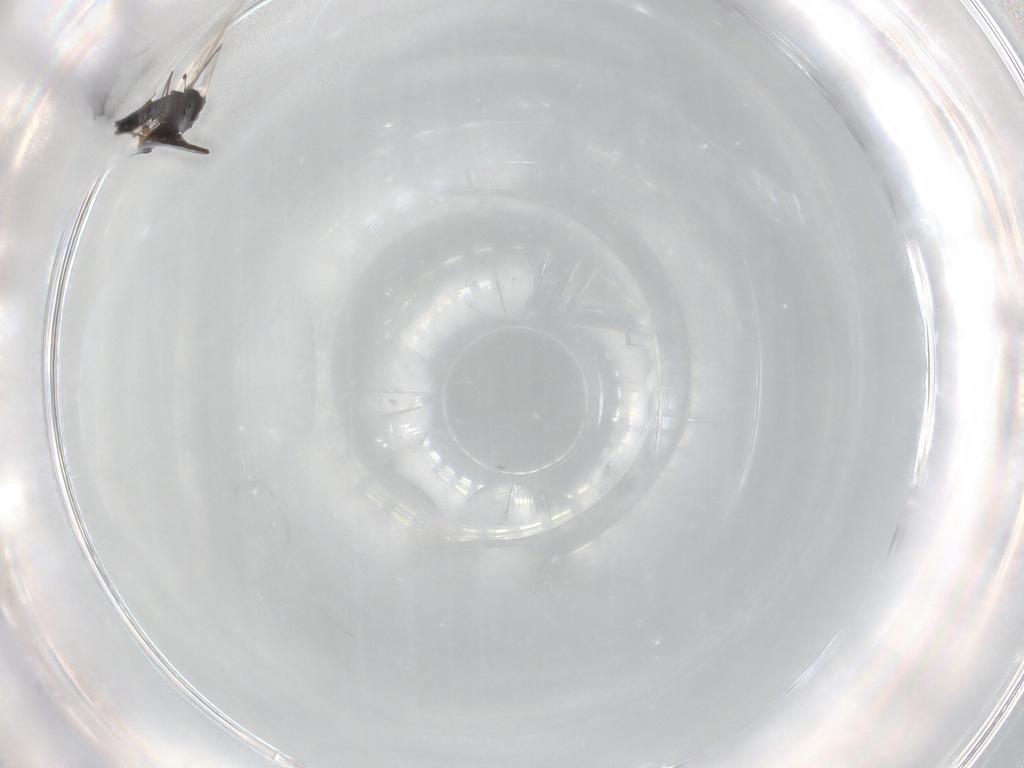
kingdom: Animalia
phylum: Arthropoda
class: Insecta
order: Diptera
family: Chironomidae
